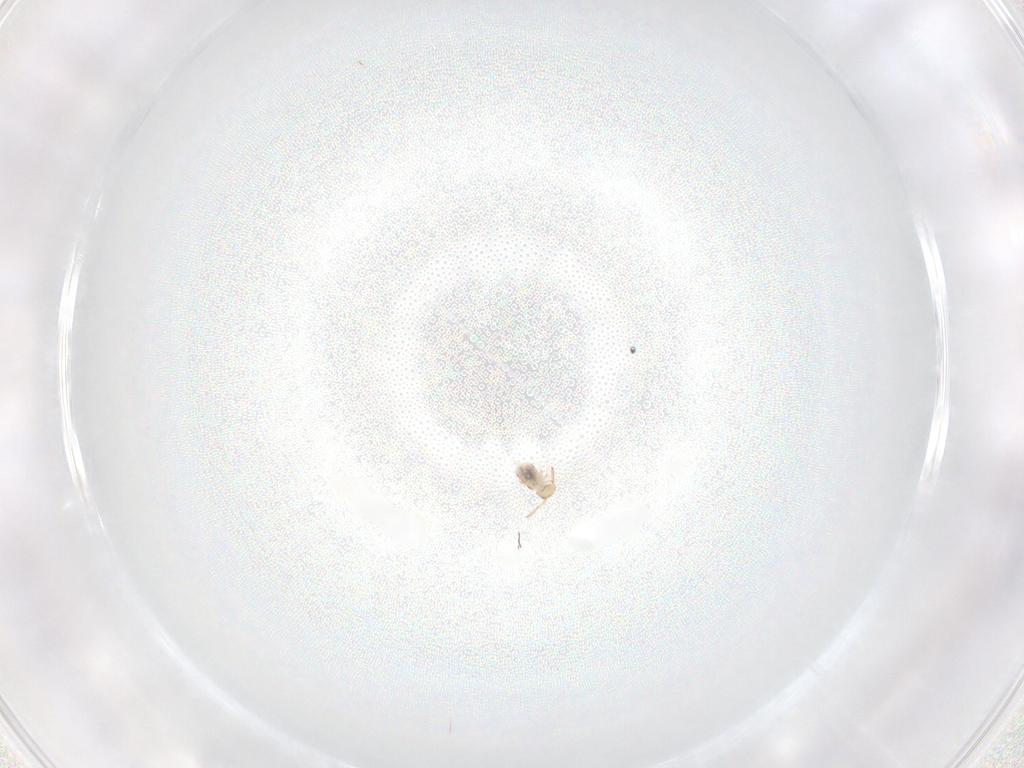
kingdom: Animalia
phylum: Arthropoda
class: Collembola
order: Symphypleona
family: Bourletiellidae
